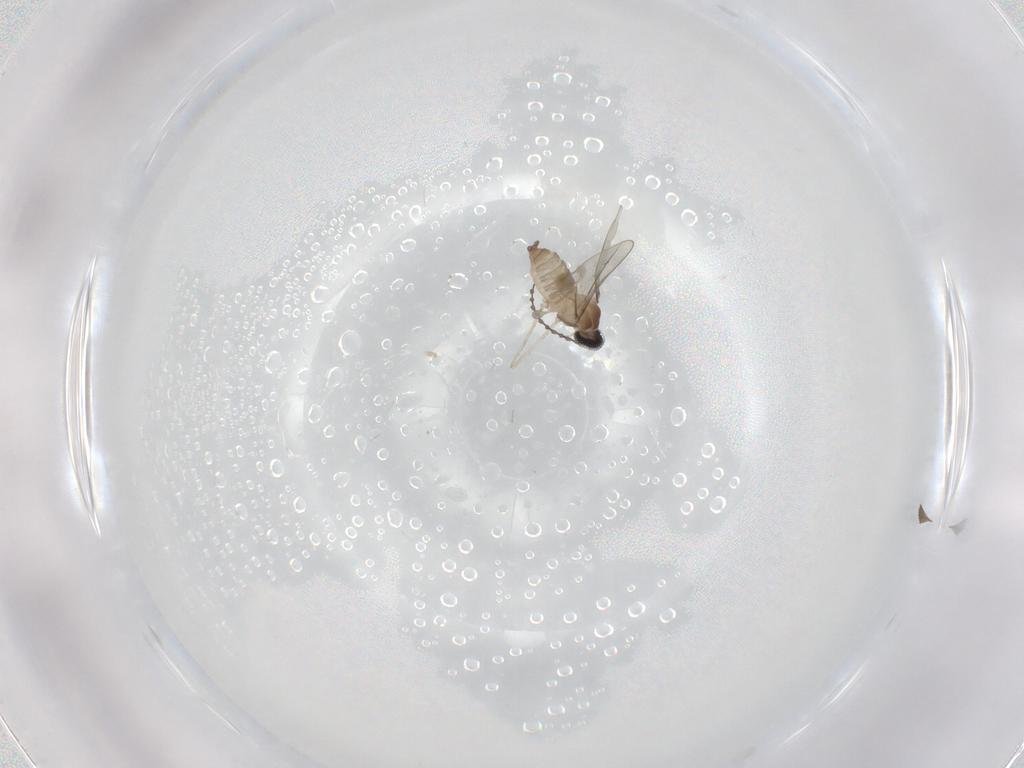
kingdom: Animalia
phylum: Arthropoda
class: Insecta
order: Diptera
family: Cecidomyiidae
